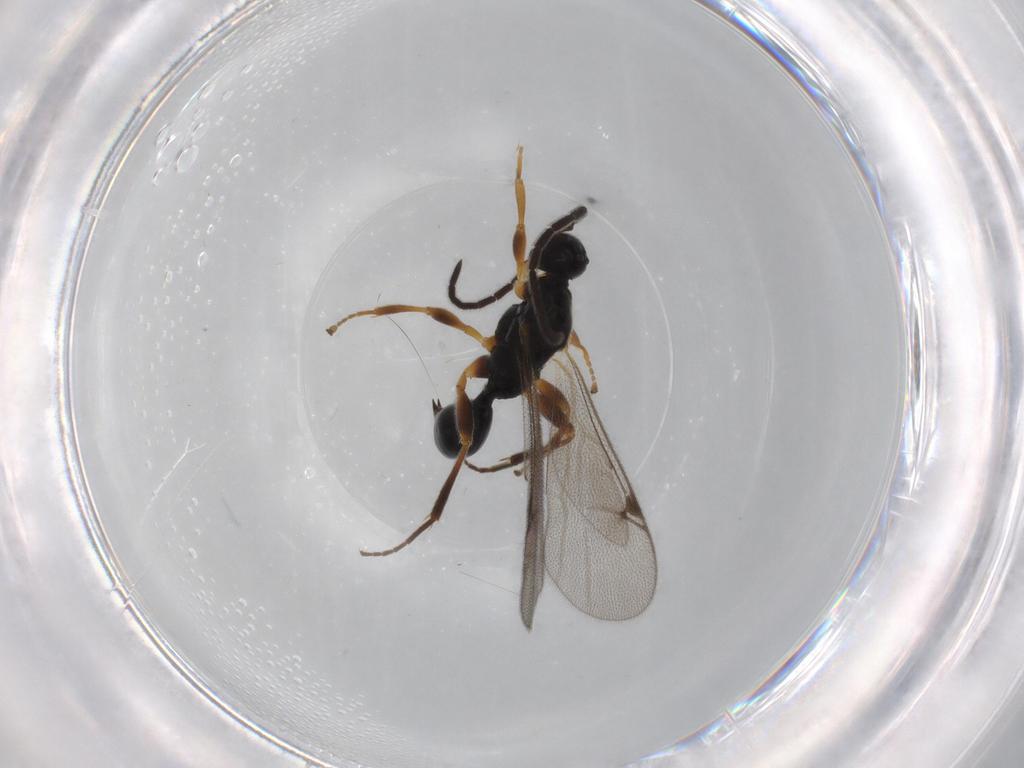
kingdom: Animalia
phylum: Arthropoda
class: Insecta
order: Hymenoptera
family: Proctotrupidae
